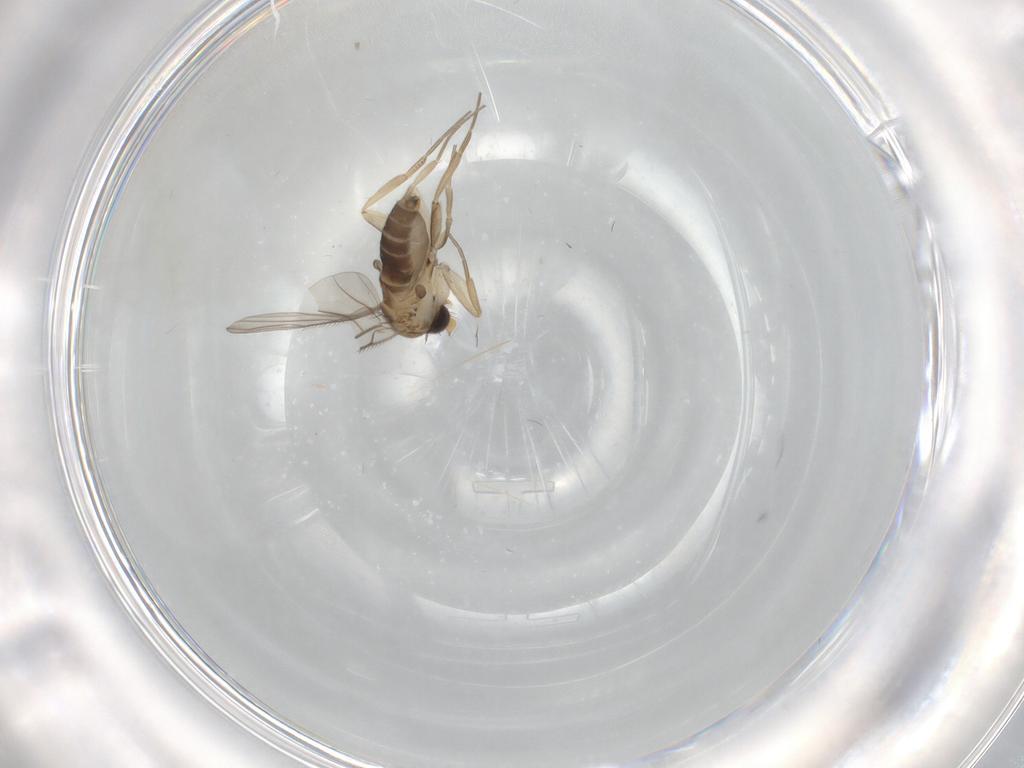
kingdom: Animalia
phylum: Arthropoda
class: Insecta
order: Diptera
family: Phoridae
